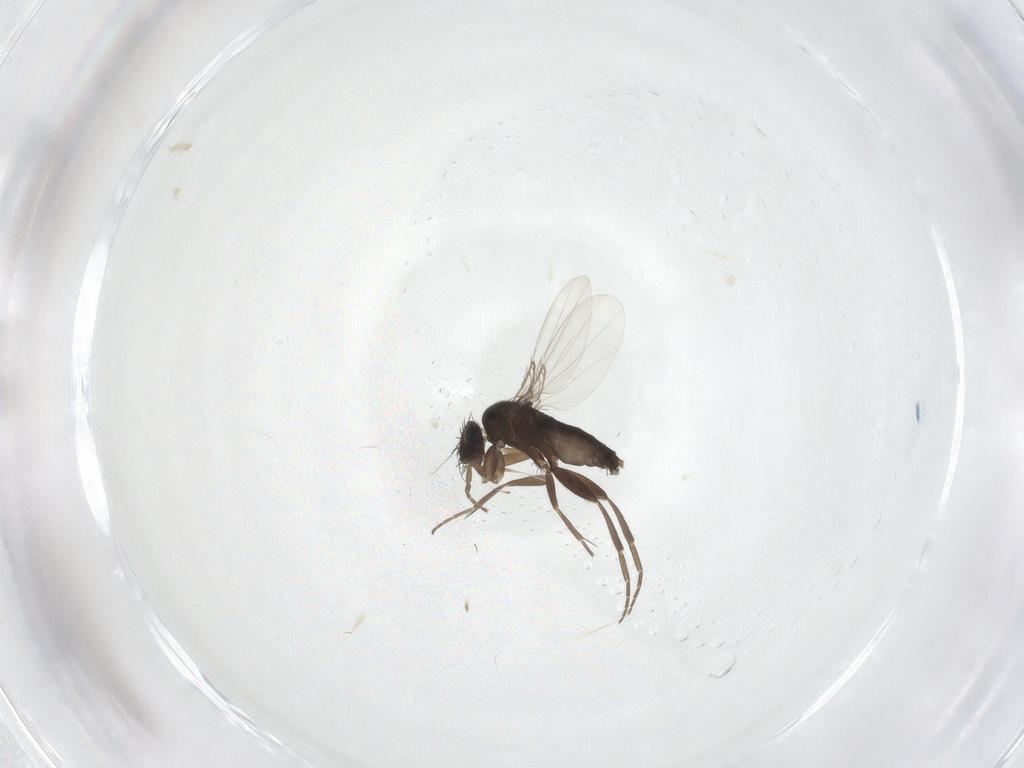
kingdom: Animalia
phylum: Arthropoda
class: Insecta
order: Diptera
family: Phoridae
